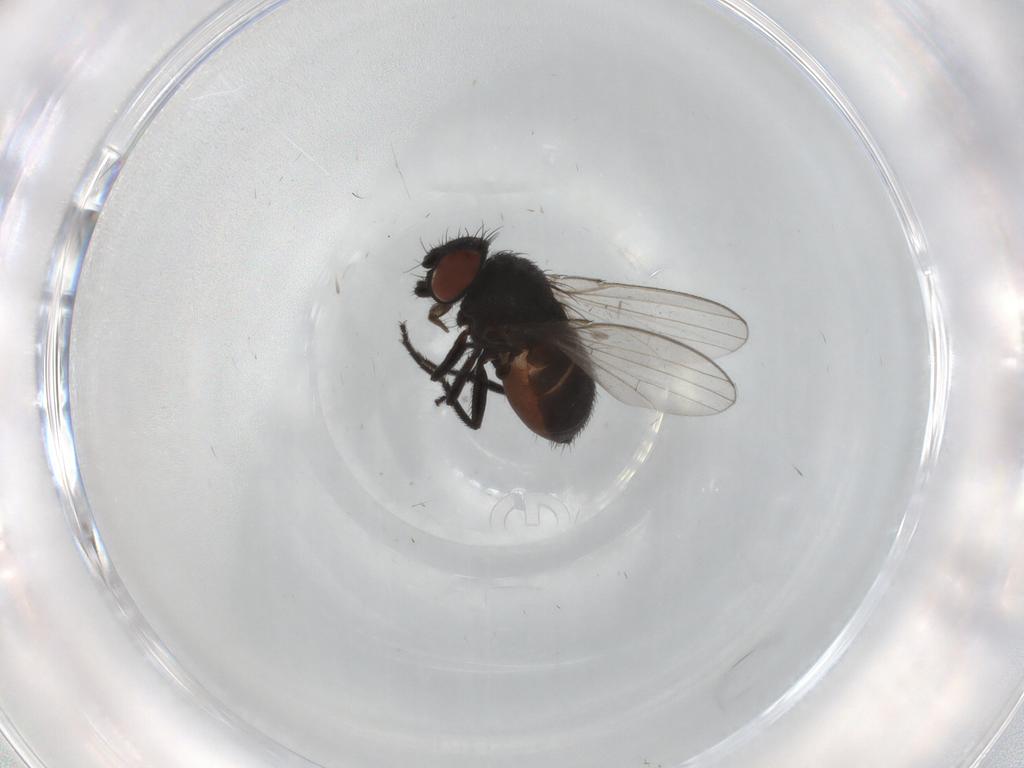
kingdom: Animalia
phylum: Arthropoda
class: Insecta
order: Diptera
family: Milichiidae
